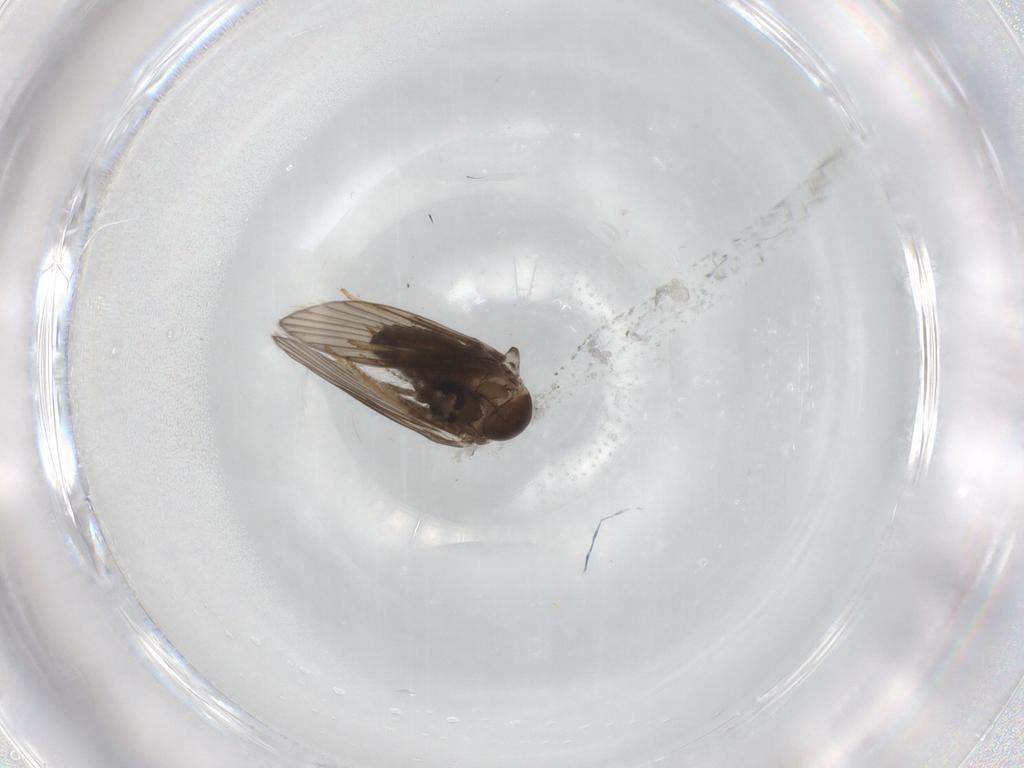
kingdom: Animalia
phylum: Arthropoda
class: Insecta
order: Diptera
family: Psychodidae
